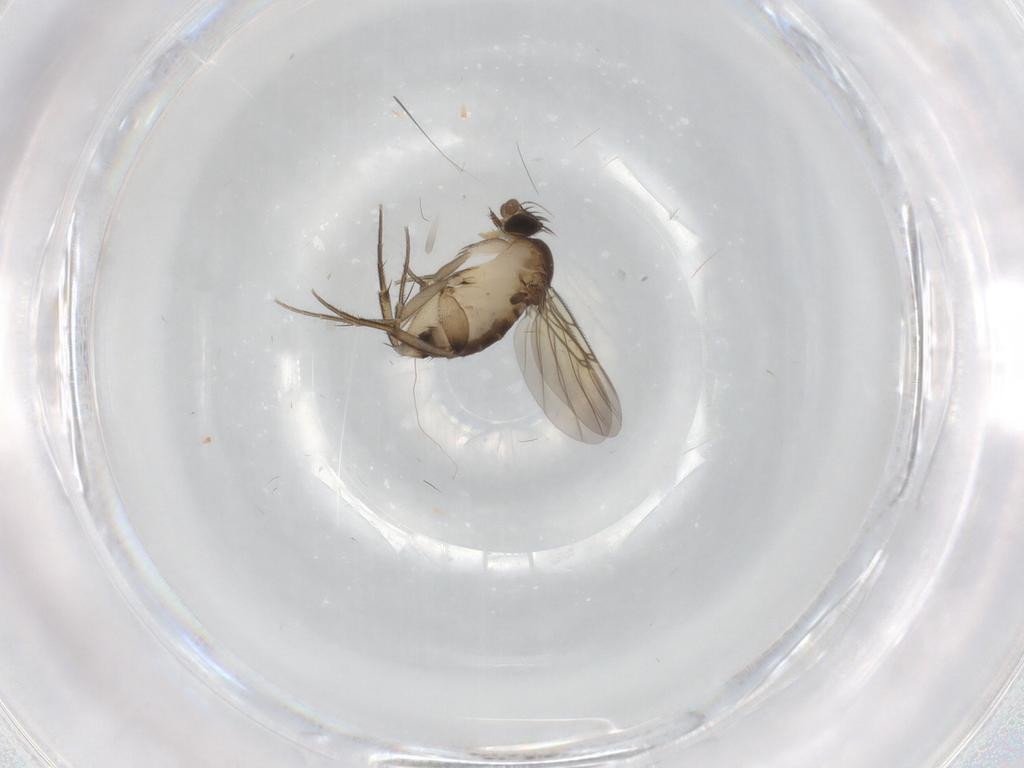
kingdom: Animalia
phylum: Arthropoda
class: Insecta
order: Diptera
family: Phoridae
